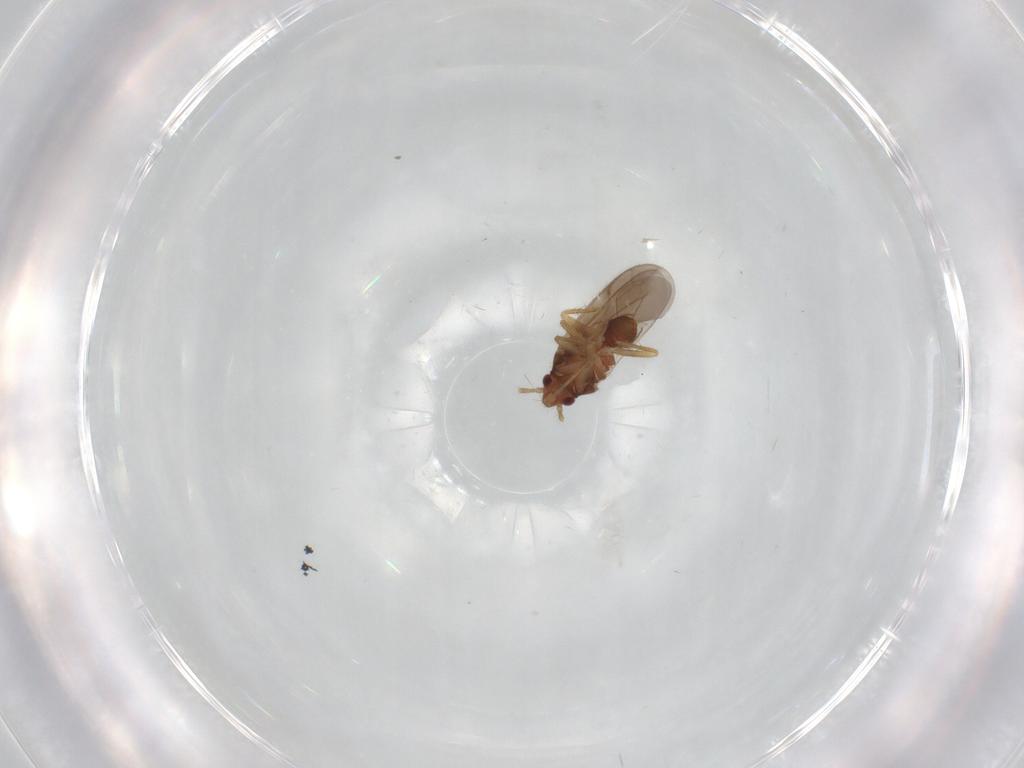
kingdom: Animalia
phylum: Arthropoda
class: Insecta
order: Hemiptera
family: Ceratocombidae
